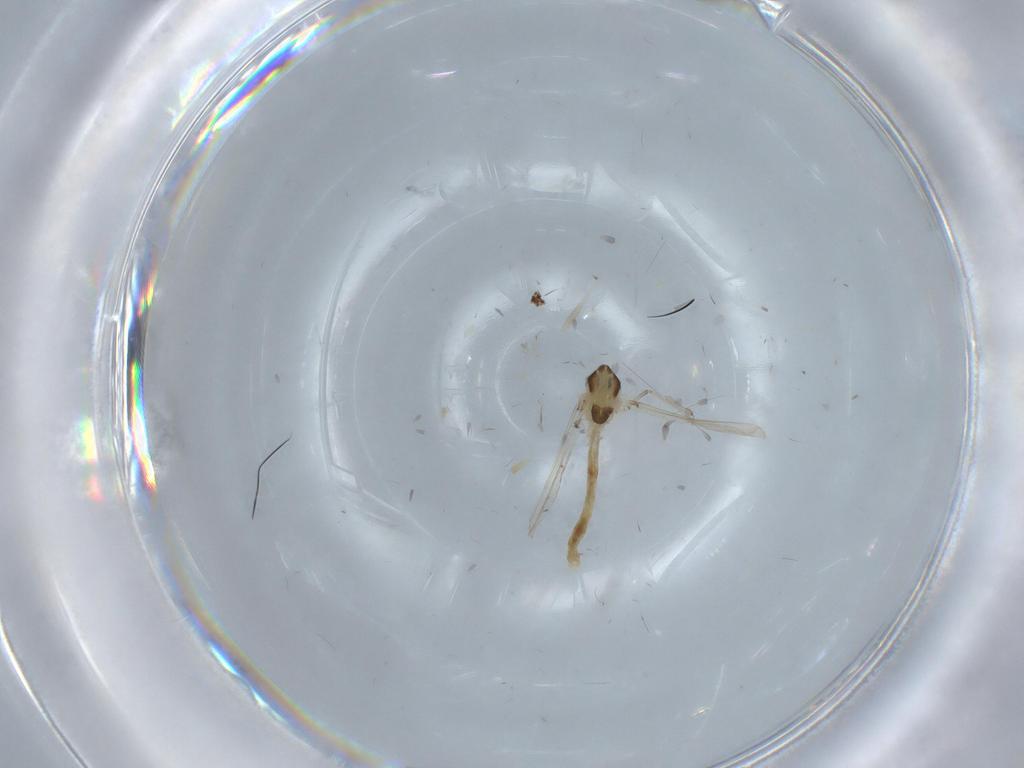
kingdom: Animalia
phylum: Arthropoda
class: Insecta
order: Diptera
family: Chironomidae
